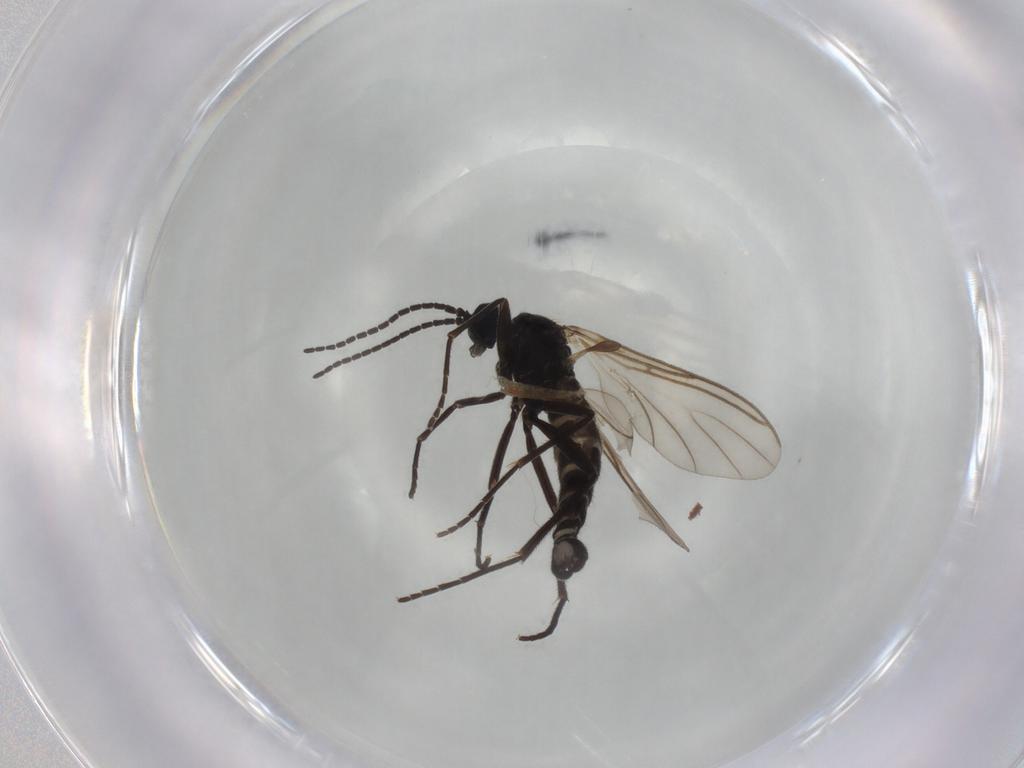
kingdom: Animalia
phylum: Arthropoda
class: Insecta
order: Diptera
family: Sciaridae
